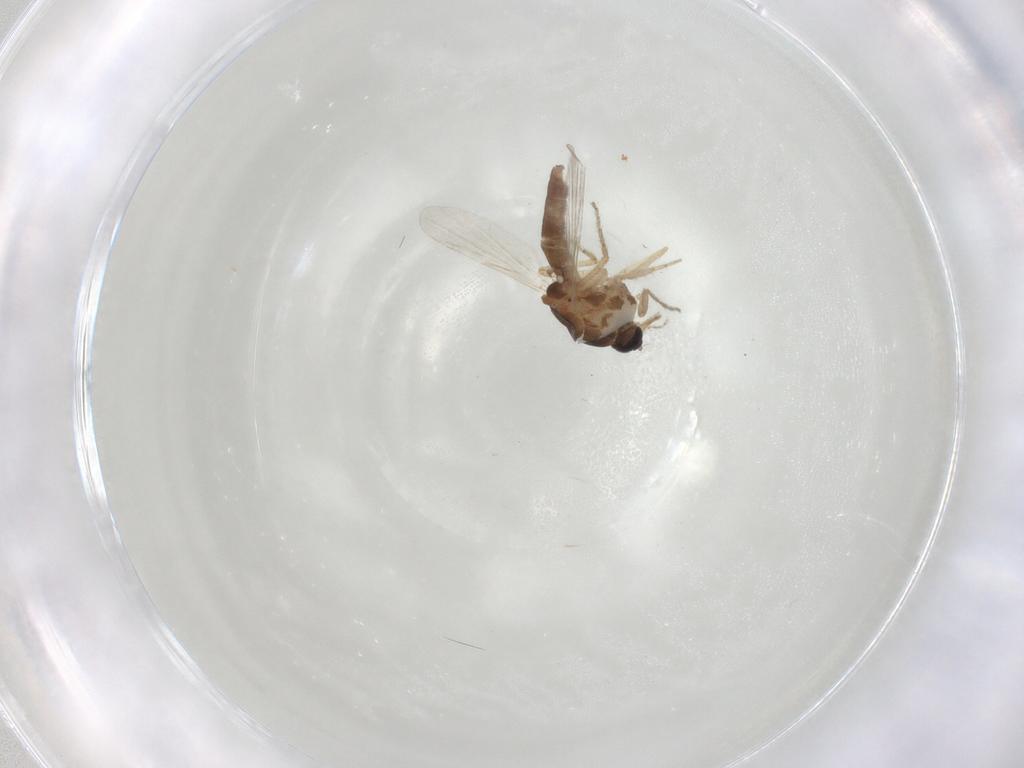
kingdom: Animalia
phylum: Arthropoda
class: Insecta
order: Diptera
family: Ceratopogonidae
